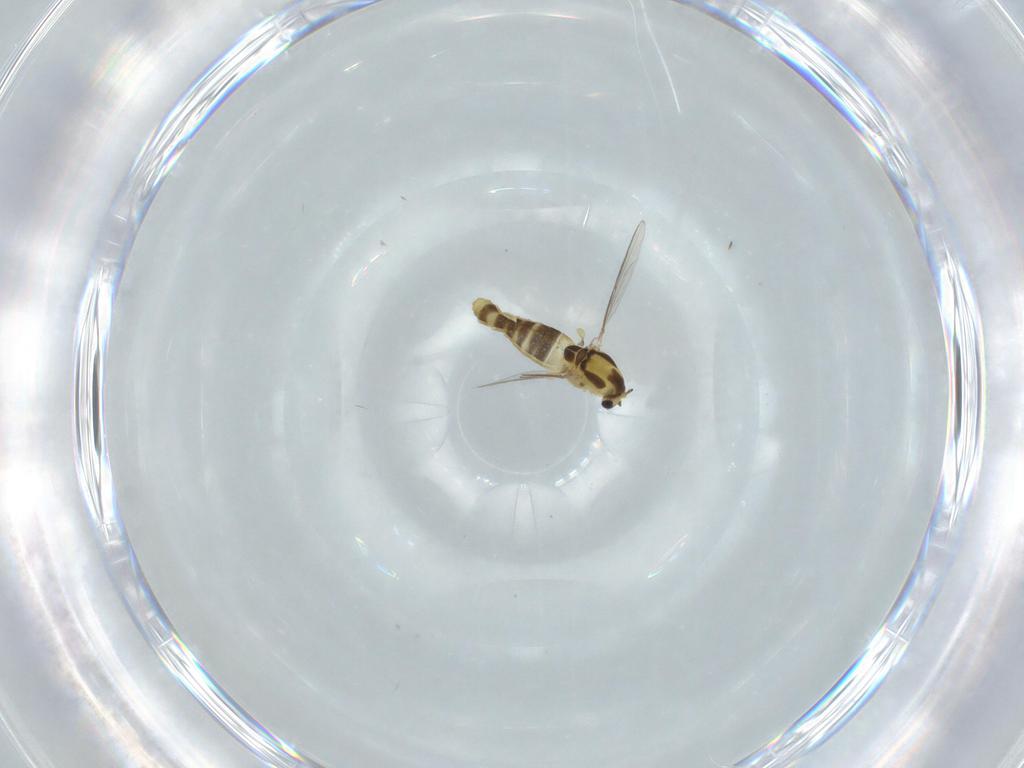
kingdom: Animalia
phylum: Arthropoda
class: Insecta
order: Diptera
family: Chironomidae
